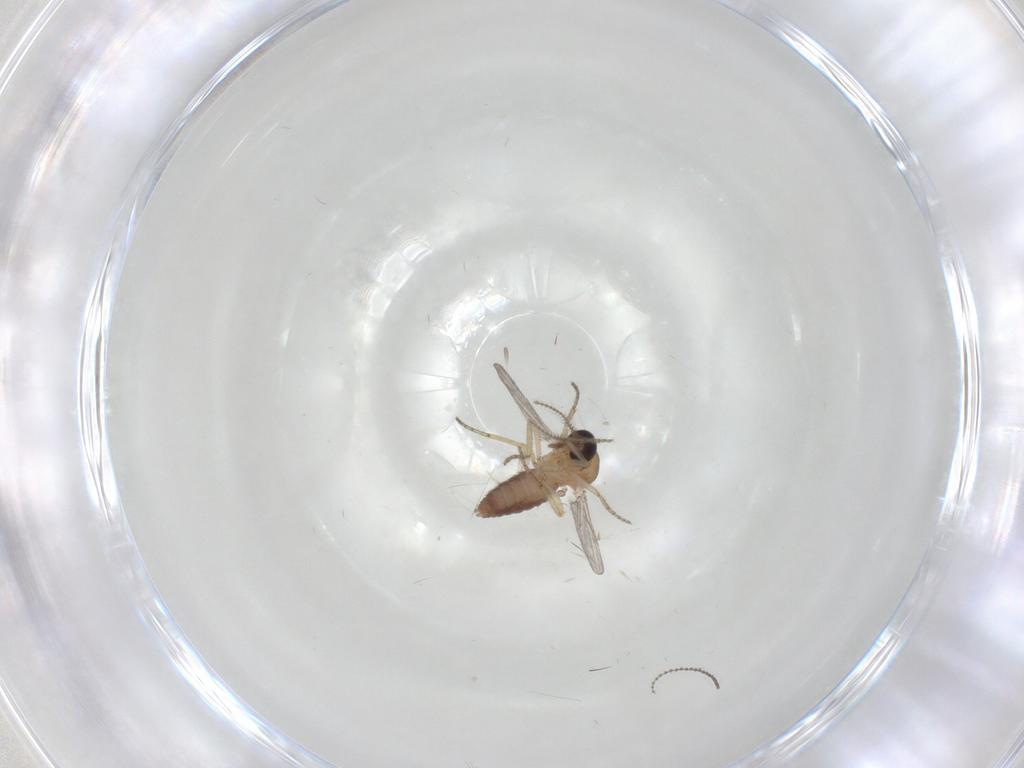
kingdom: Animalia
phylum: Arthropoda
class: Insecta
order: Diptera
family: Ceratopogonidae
